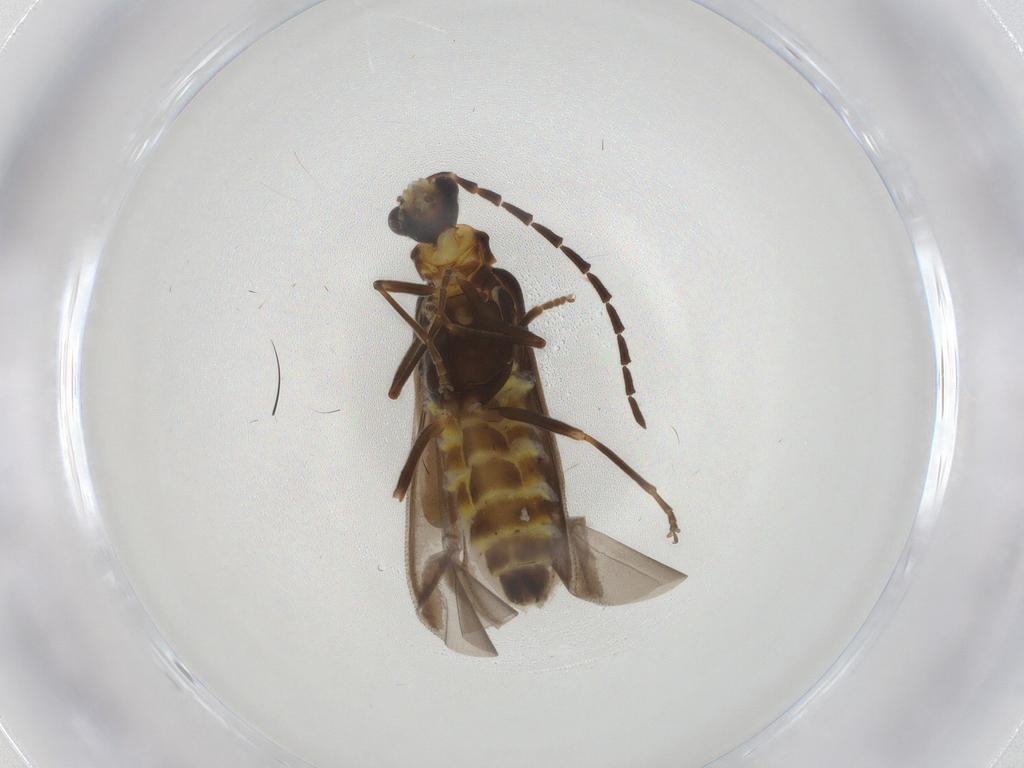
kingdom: Animalia
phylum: Arthropoda
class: Insecta
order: Coleoptera
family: Cantharidae
